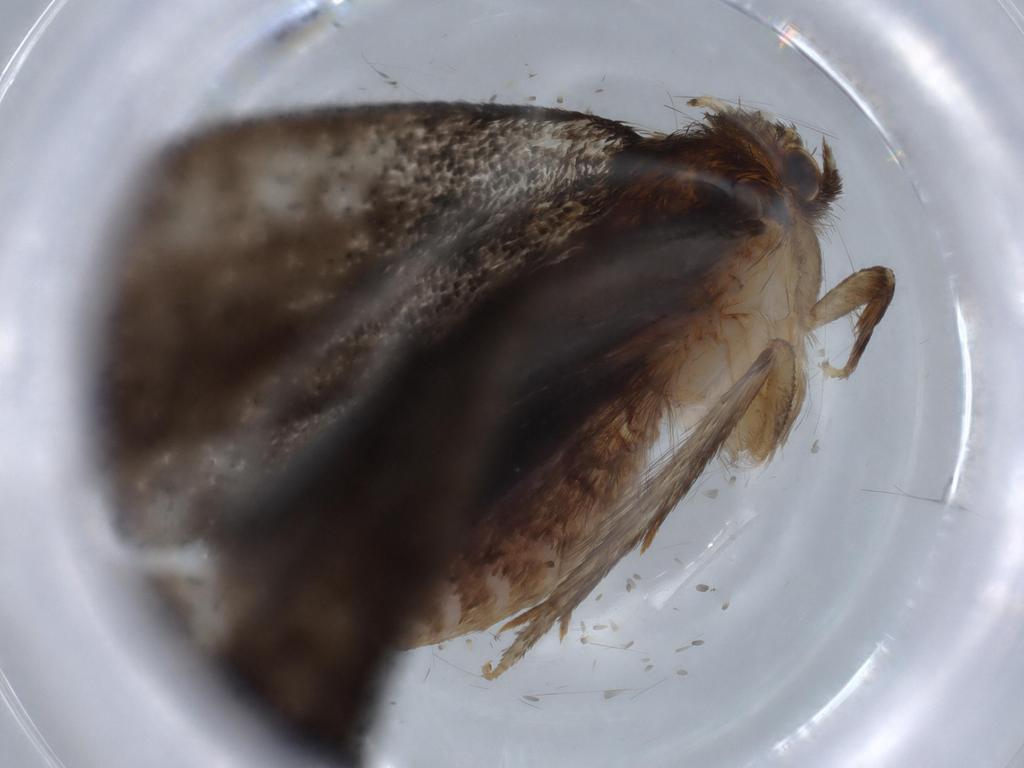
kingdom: Animalia
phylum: Arthropoda
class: Insecta
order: Lepidoptera
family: Tineidae
